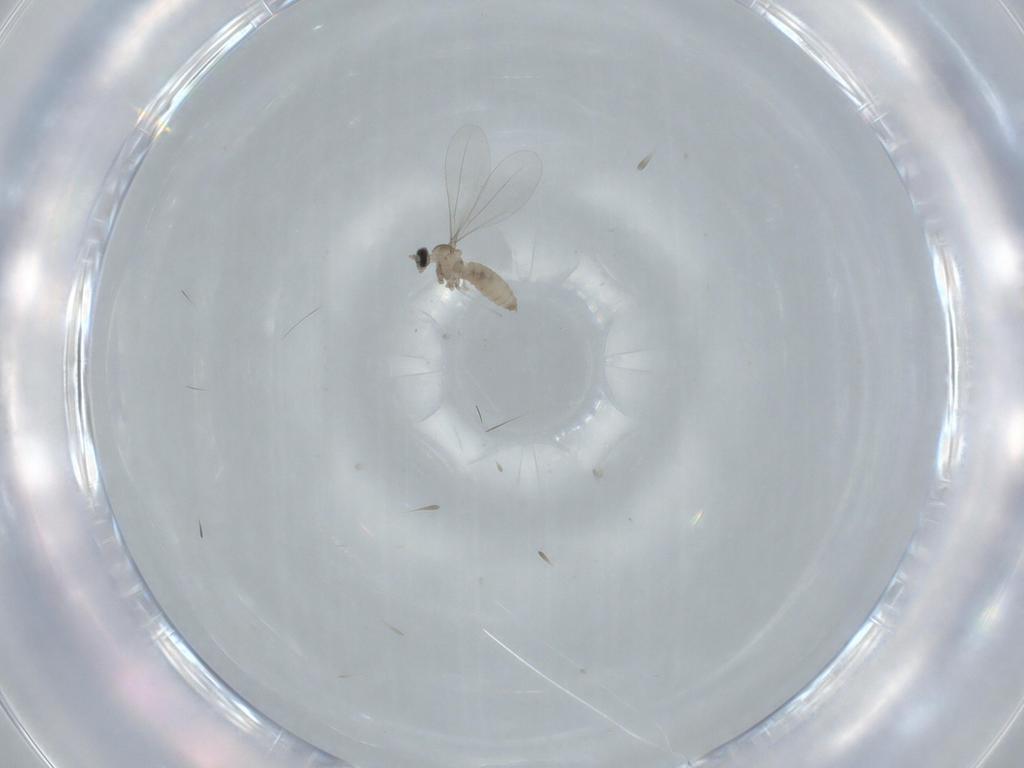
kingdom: Animalia
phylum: Arthropoda
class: Insecta
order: Diptera
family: Cecidomyiidae
